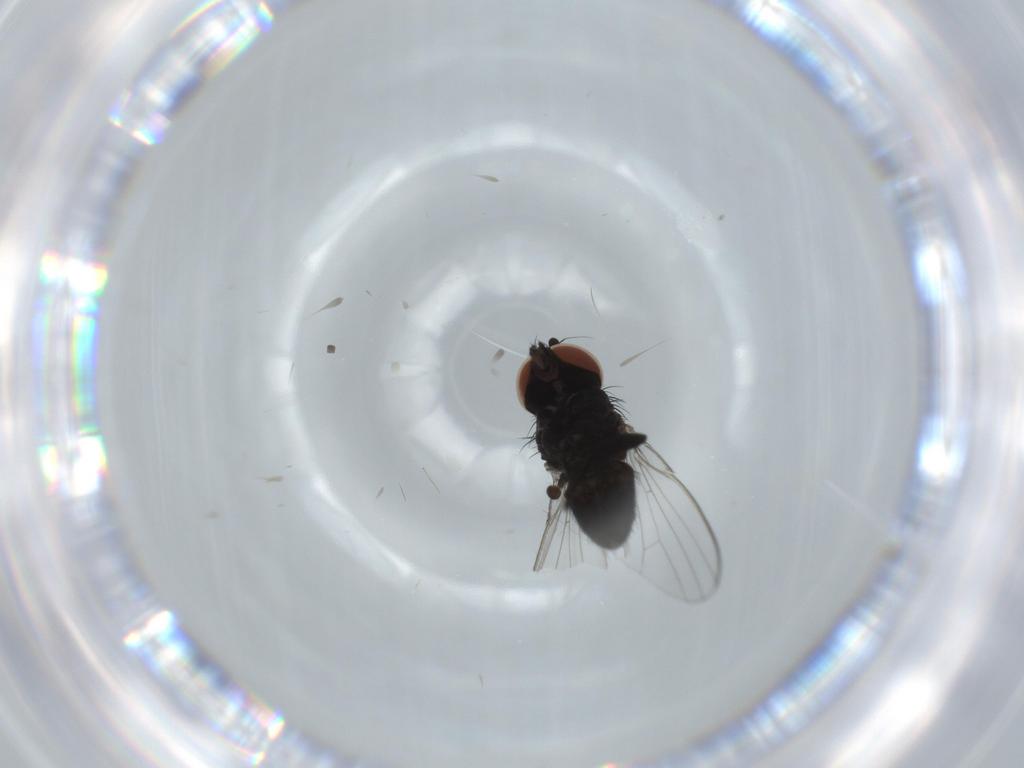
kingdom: Animalia
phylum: Arthropoda
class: Insecta
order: Diptera
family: Milichiidae
